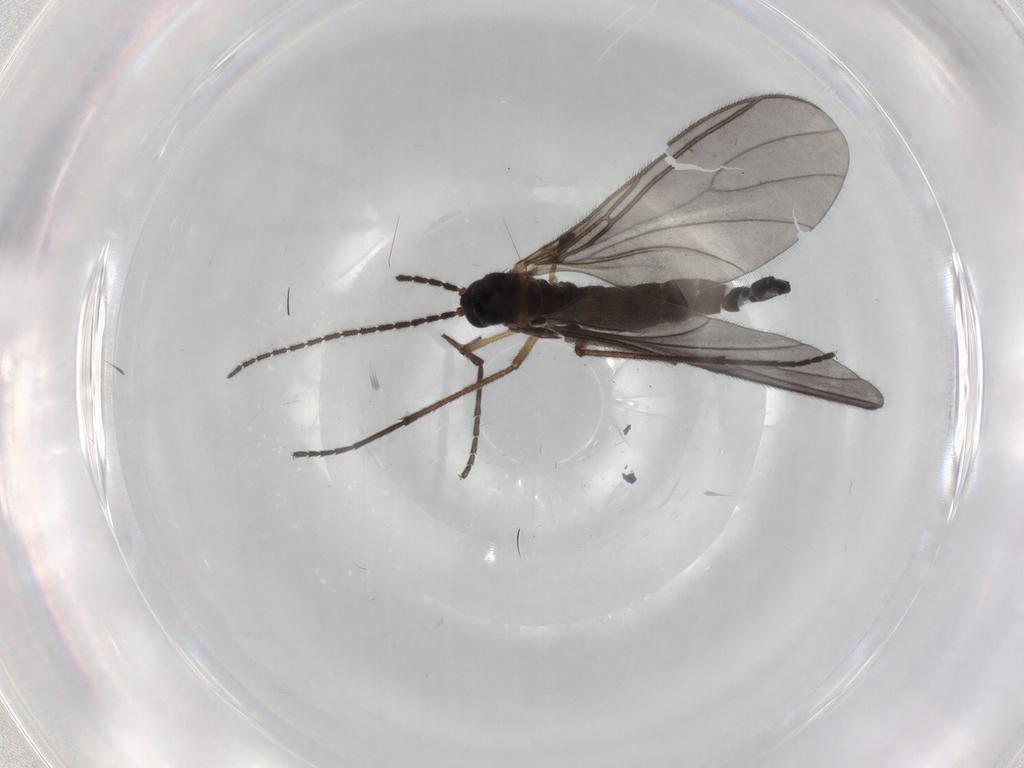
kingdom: Animalia
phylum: Arthropoda
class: Insecta
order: Diptera
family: Sciaridae
